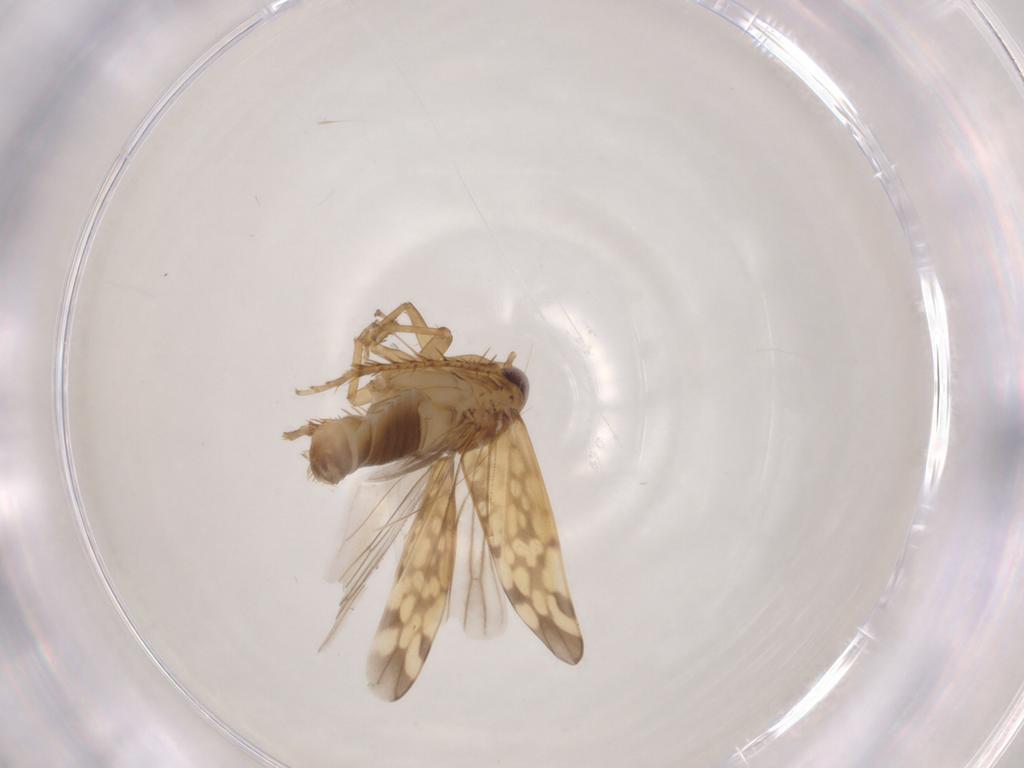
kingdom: Animalia
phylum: Arthropoda
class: Insecta
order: Hemiptera
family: Cicadellidae
